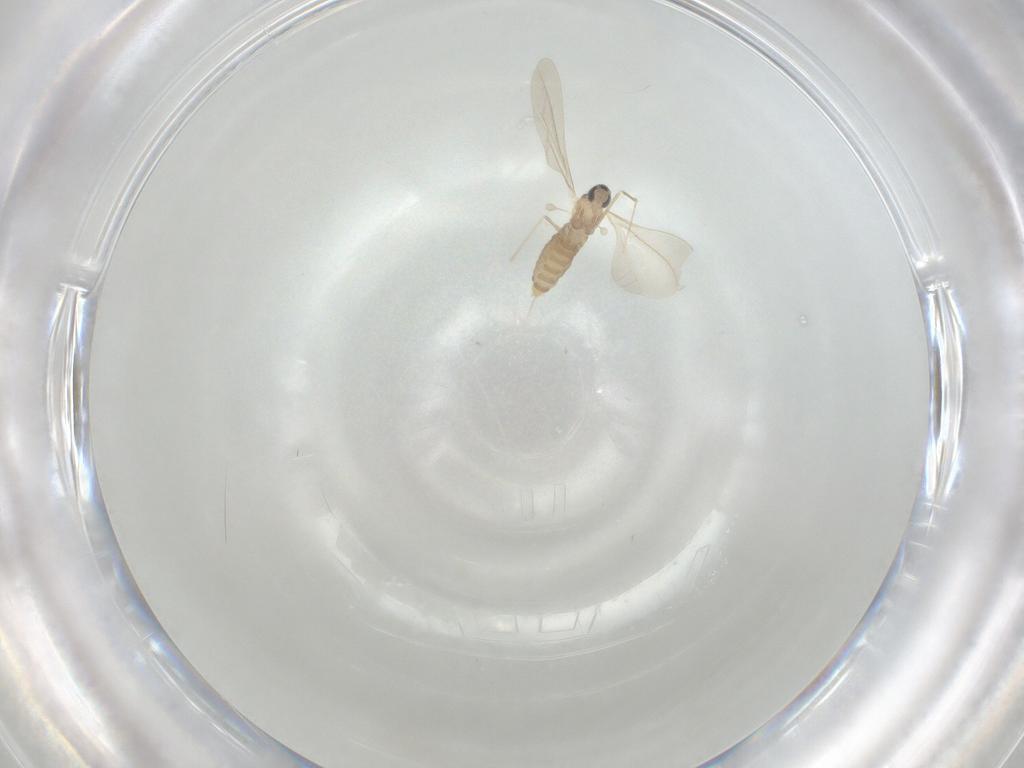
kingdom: Animalia
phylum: Arthropoda
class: Insecta
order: Diptera
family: Cecidomyiidae
